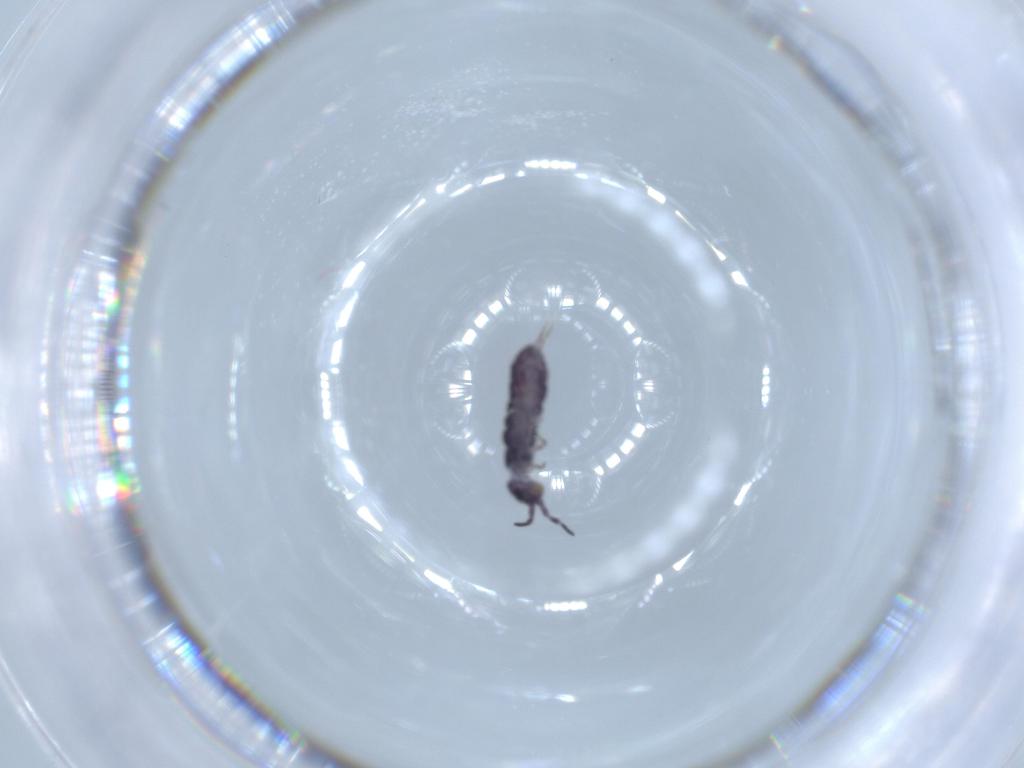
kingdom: Animalia
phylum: Arthropoda
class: Collembola
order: Entomobryomorpha
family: Isotomidae
